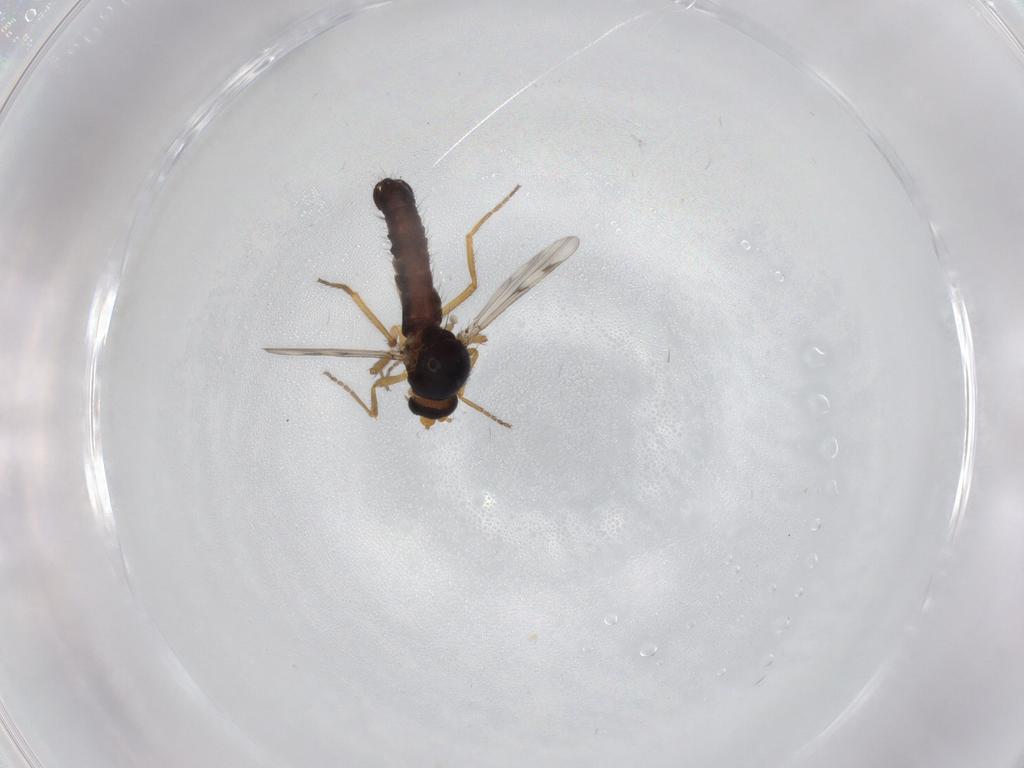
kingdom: Animalia
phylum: Arthropoda
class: Insecta
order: Diptera
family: Ceratopogonidae
